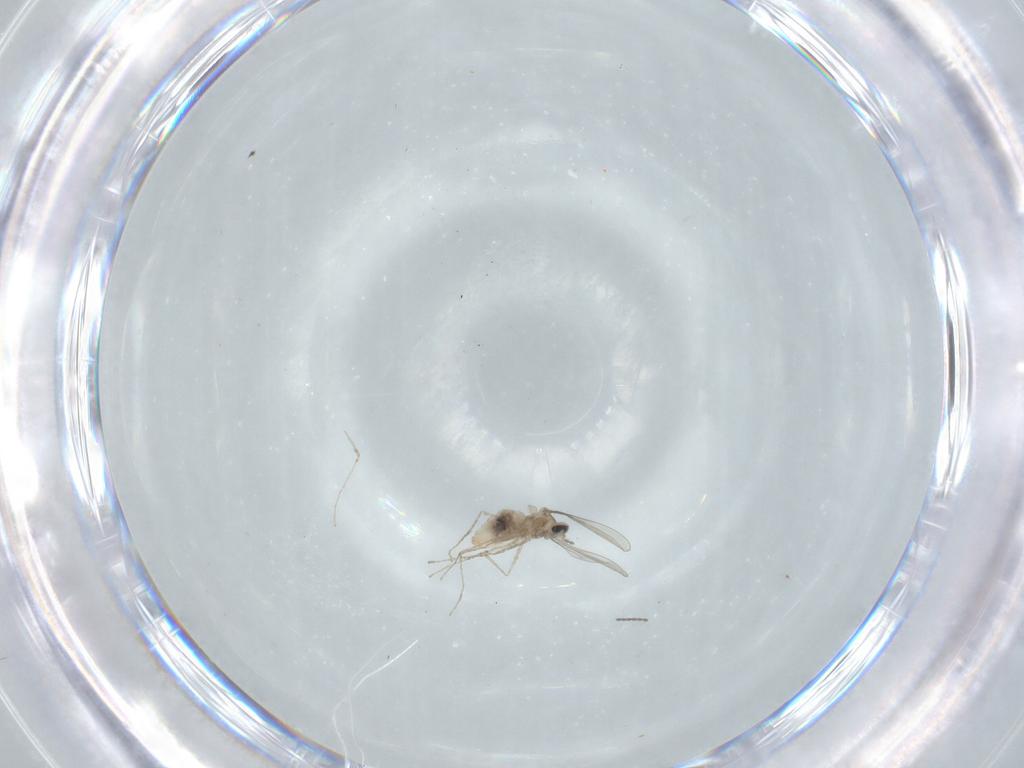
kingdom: Animalia
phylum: Arthropoda
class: Insecta
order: Diptera
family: Cecidomyiidae
